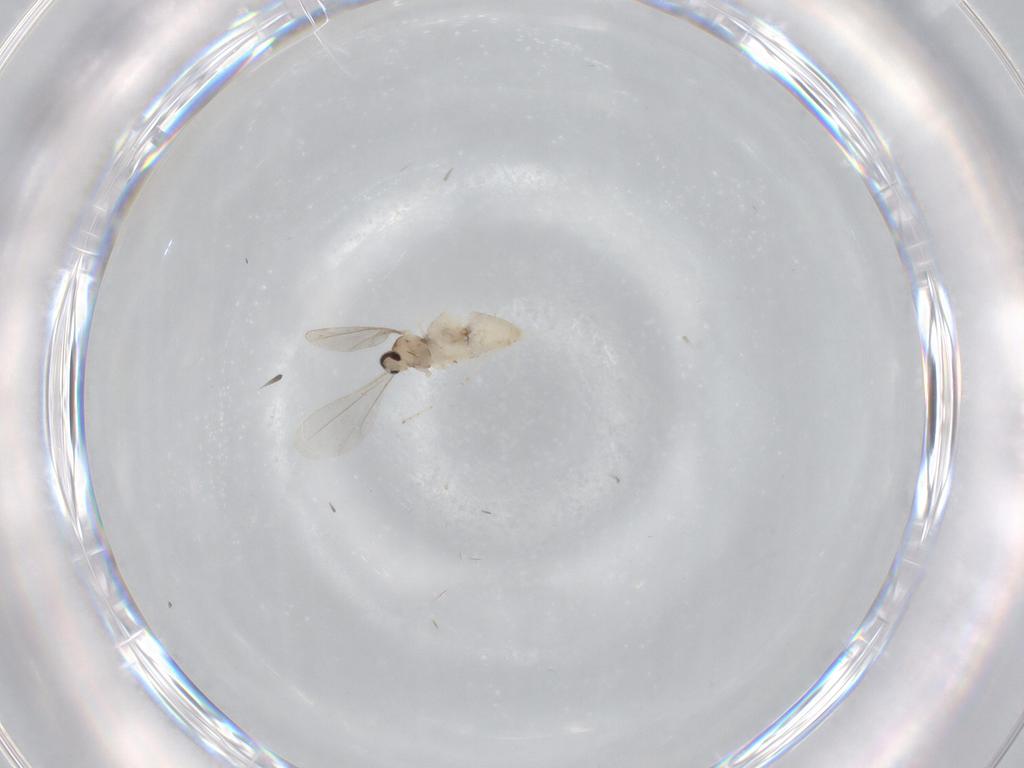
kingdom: Animalia
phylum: Arthropoda
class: Insecta
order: Diptera
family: Cecidomyiidae
